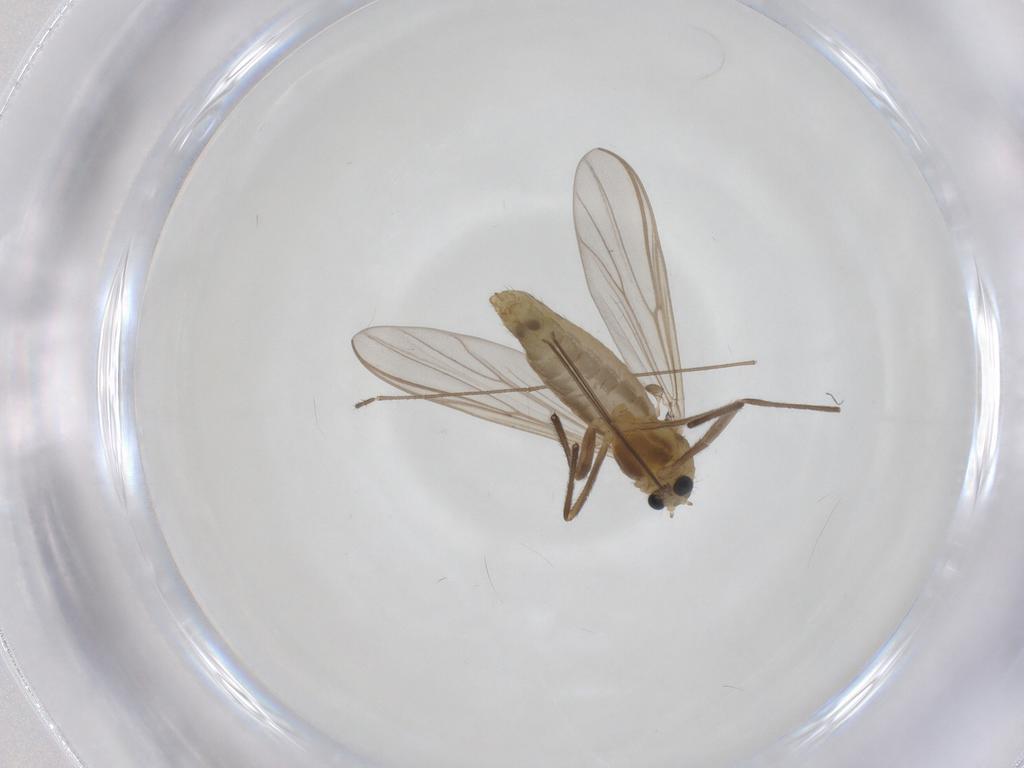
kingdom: Animalia
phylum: Arthropoda
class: Insecta
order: Diptera
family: Chironomidae
